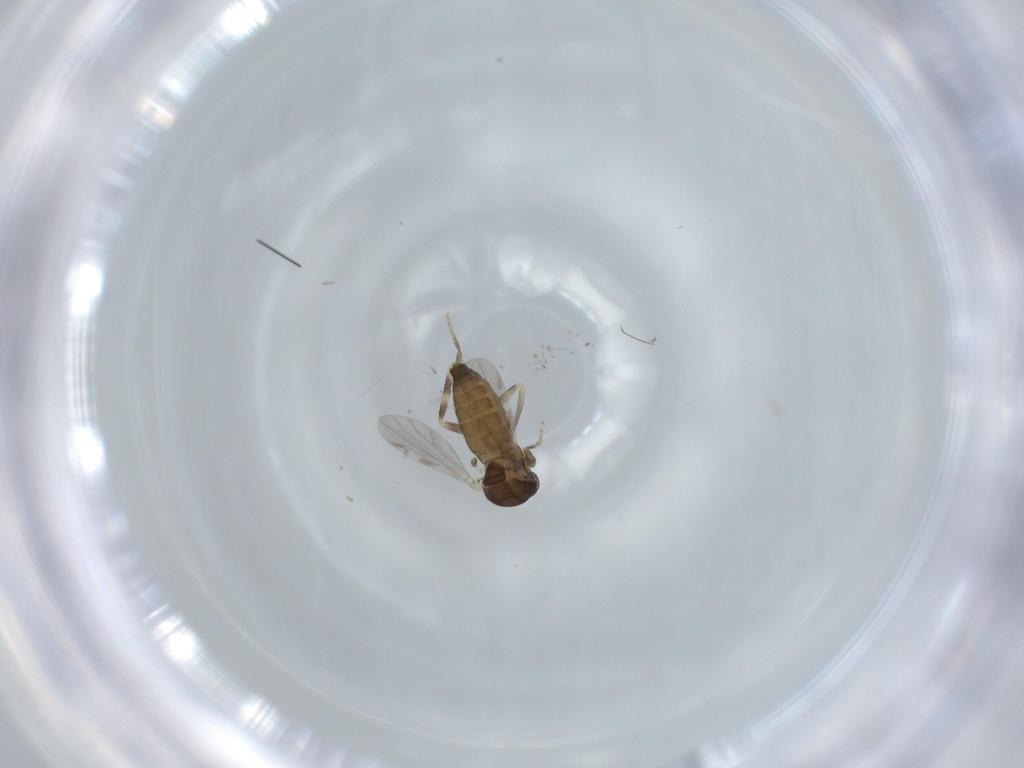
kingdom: Animalia
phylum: Arthropoda
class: Insecta
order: Diptera
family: Ceratopogonidae
